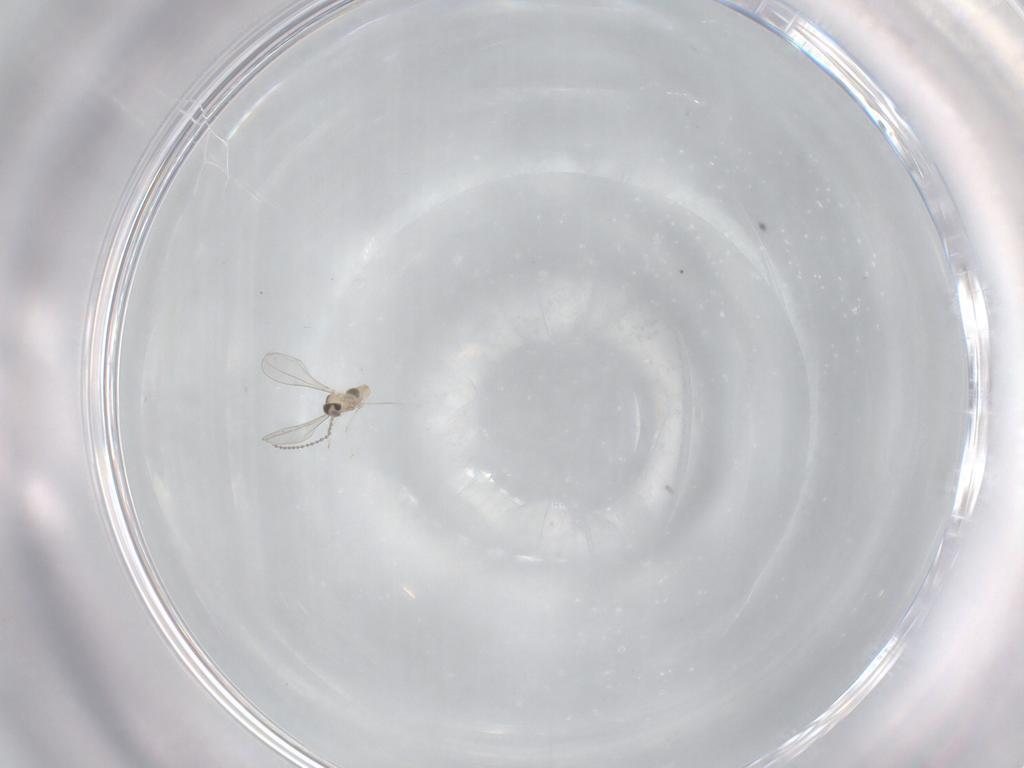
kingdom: Animalia
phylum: Arthropoda
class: Insecta
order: Diptera
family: Cecidomyiidae
